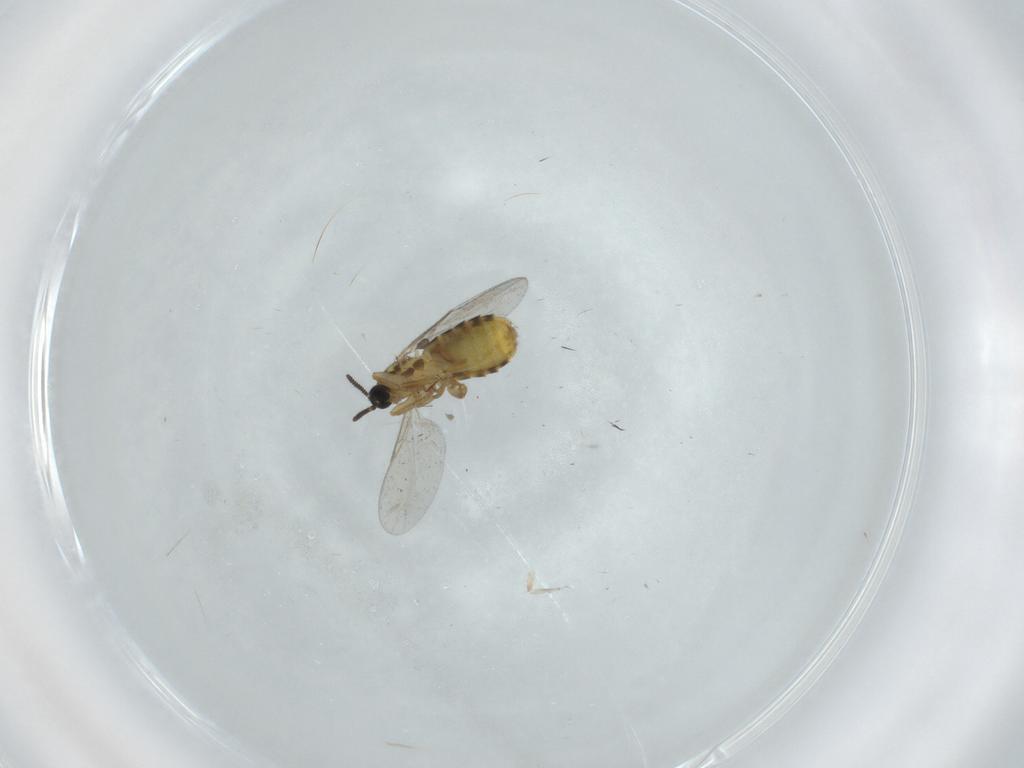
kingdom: Animalia
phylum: Arthropoda
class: Insecta
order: Diptera
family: Scatopsidae
